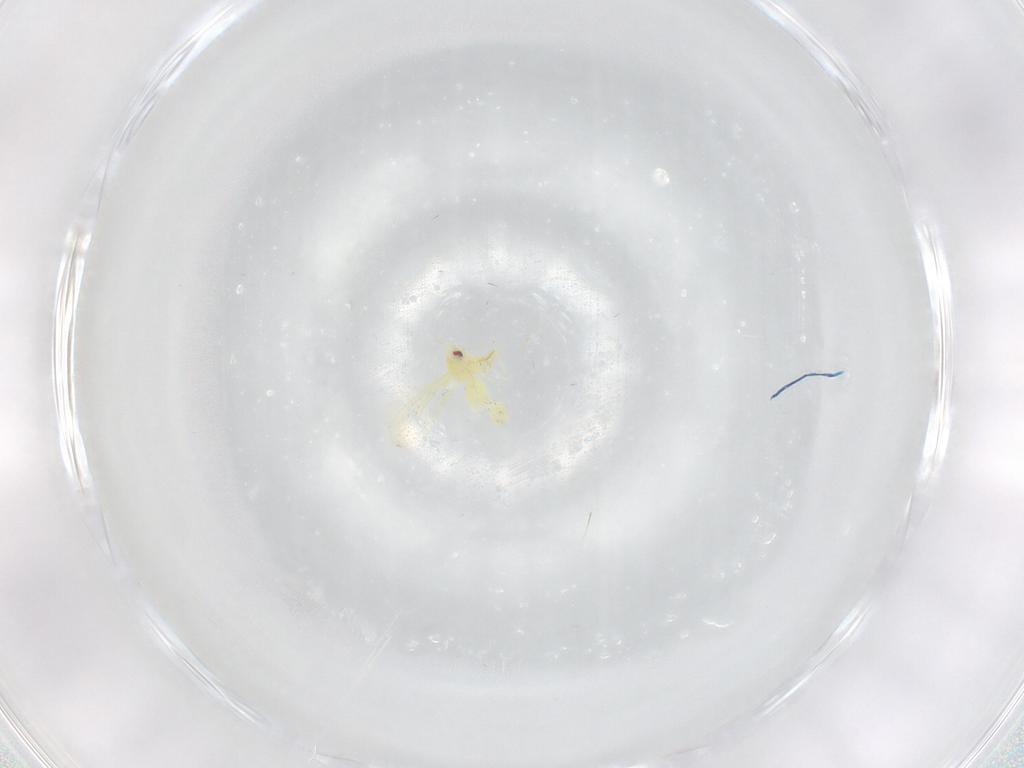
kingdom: Animalia
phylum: Arthropoda
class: Insecta
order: Hemiptera
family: Aleyrodidae
